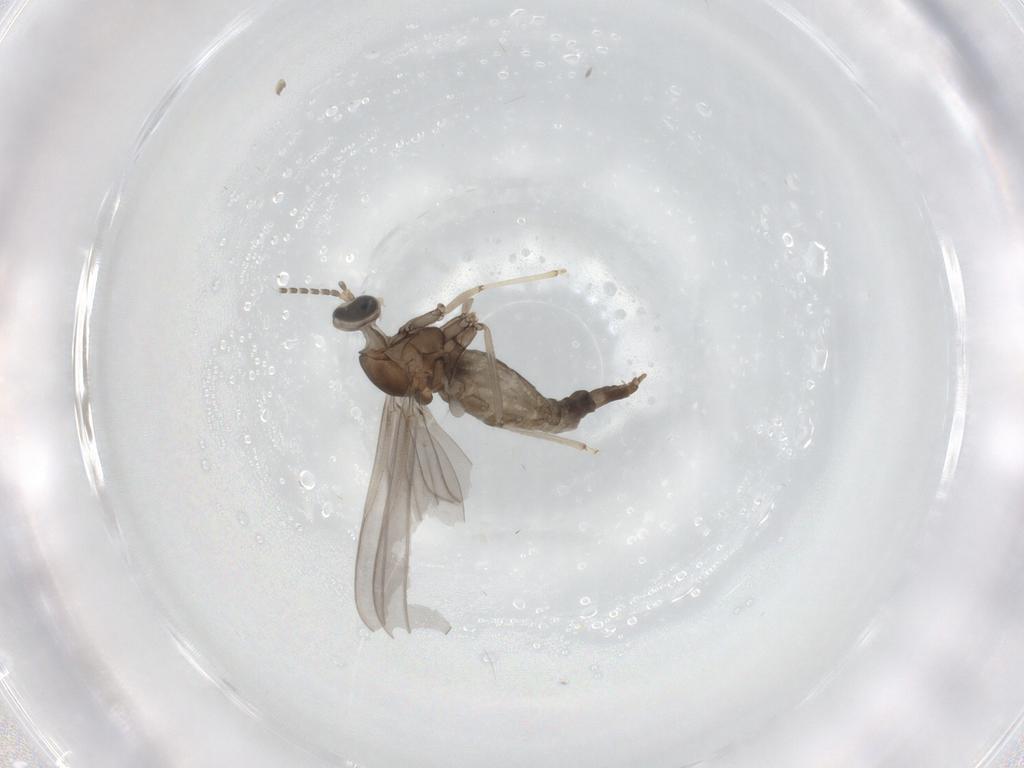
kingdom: Animalia
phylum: Arthropoda
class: Insecta
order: Diptera
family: Cecidomyiidae
